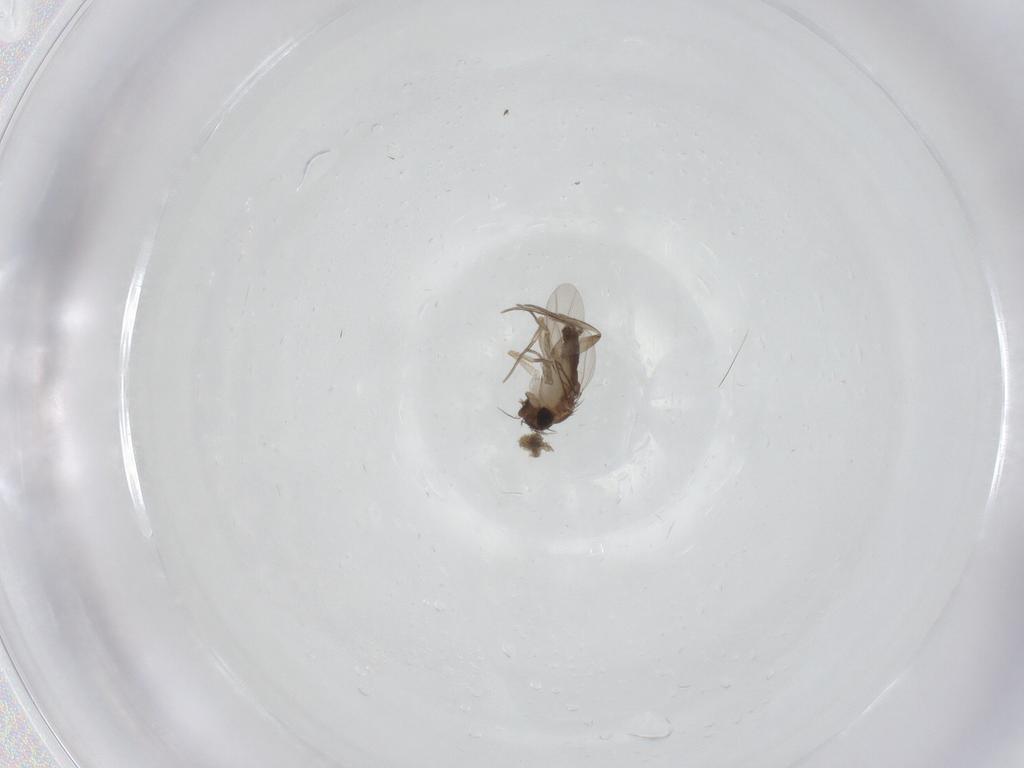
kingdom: Animalia
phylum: Arthropoda
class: Insecta
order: Diptera
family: Phoridae
